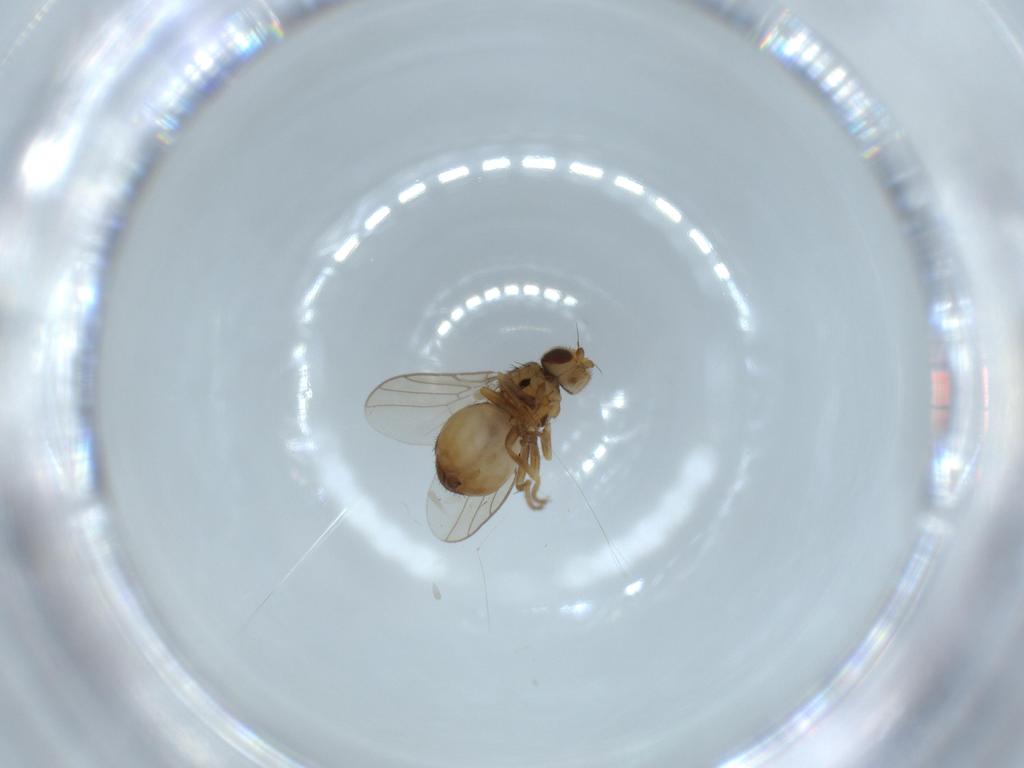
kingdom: Animalia
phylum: Arthropoda
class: Insecta
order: Diptera
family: Chloropidae
